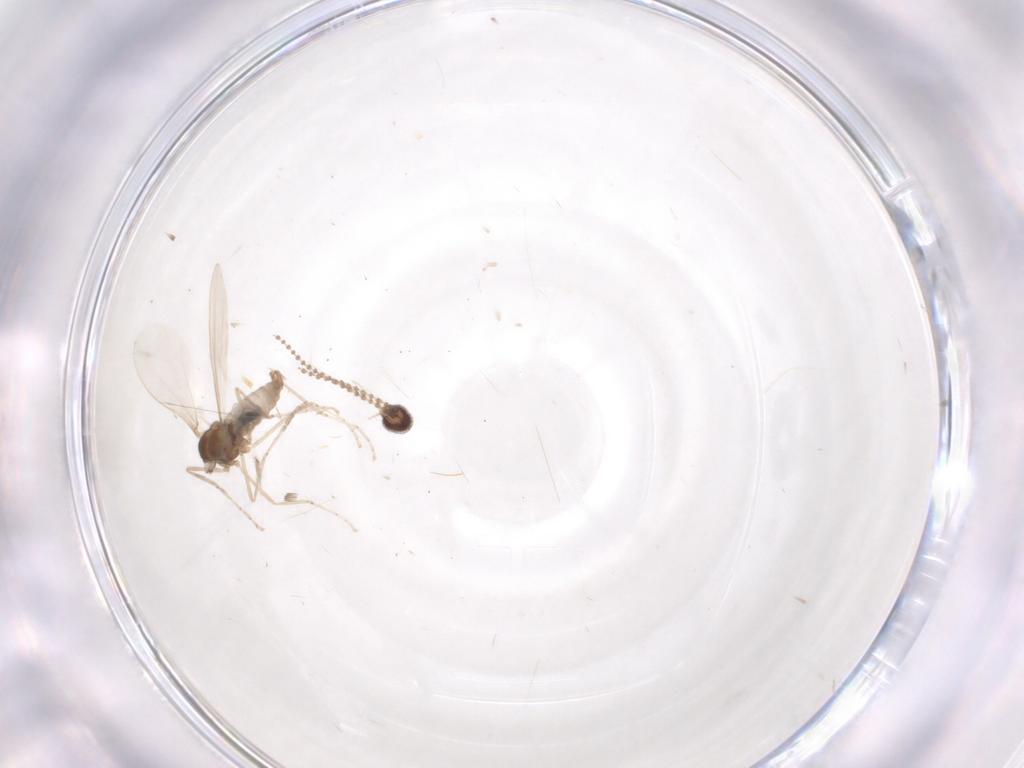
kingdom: Animalia
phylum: Arthropoda
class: Insecta
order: Diptera
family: Cecidomyiidae
